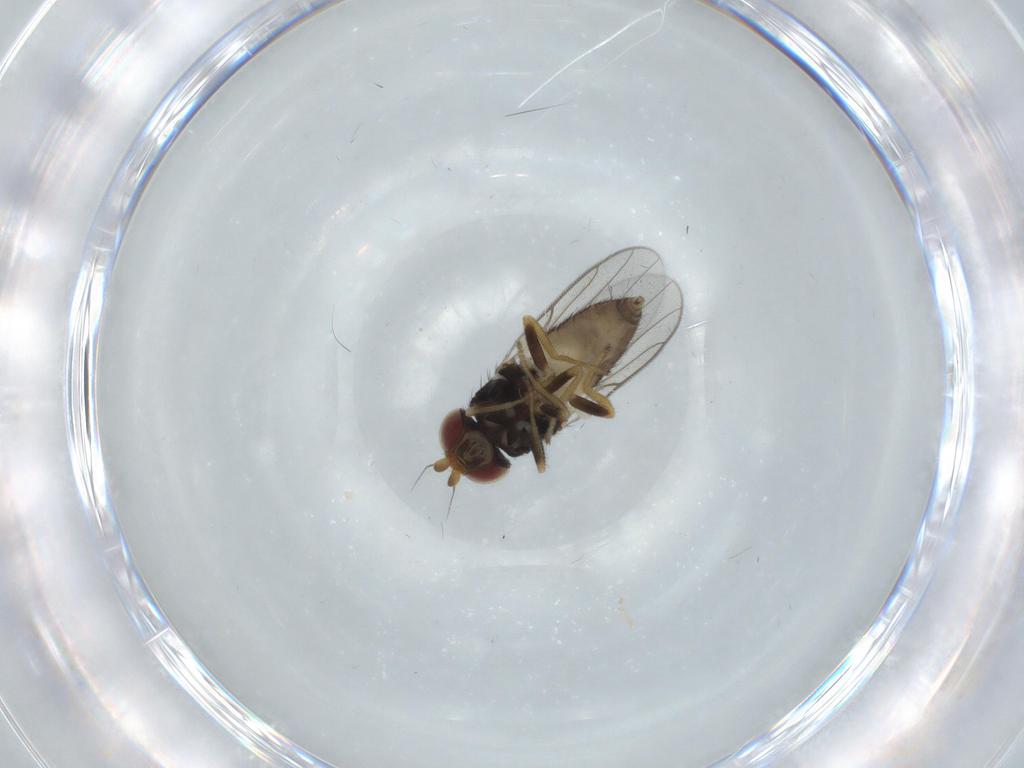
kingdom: Animalia
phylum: Arthropoda
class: Insecta
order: Diptera
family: Chloropidae
